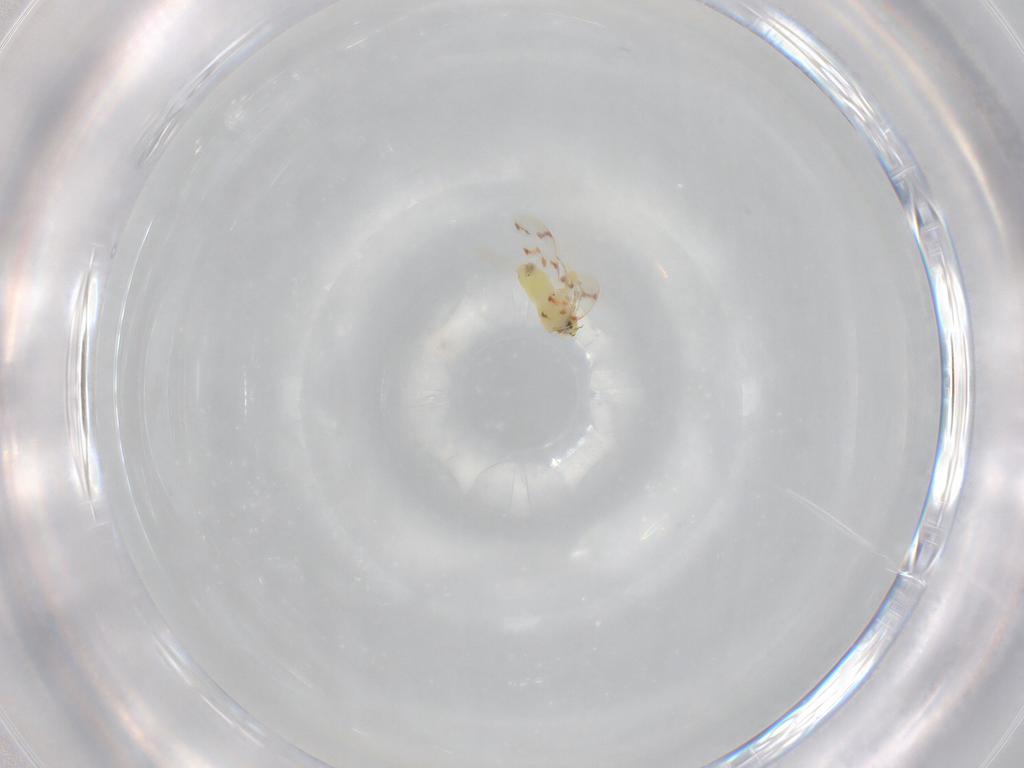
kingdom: Animalia
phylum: Arthropoda
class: Insecta
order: Hemiptera
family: Aleyrodidae
